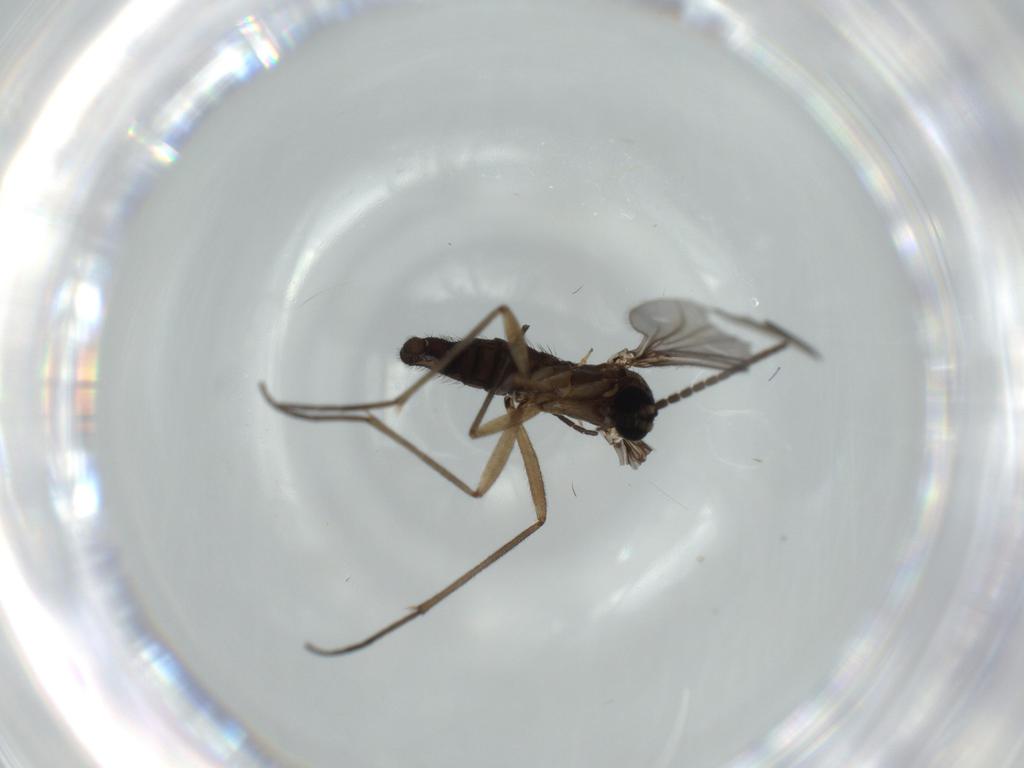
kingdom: Animalia
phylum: Arthropoda
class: Insecta
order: Diptera
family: Sciaridae
